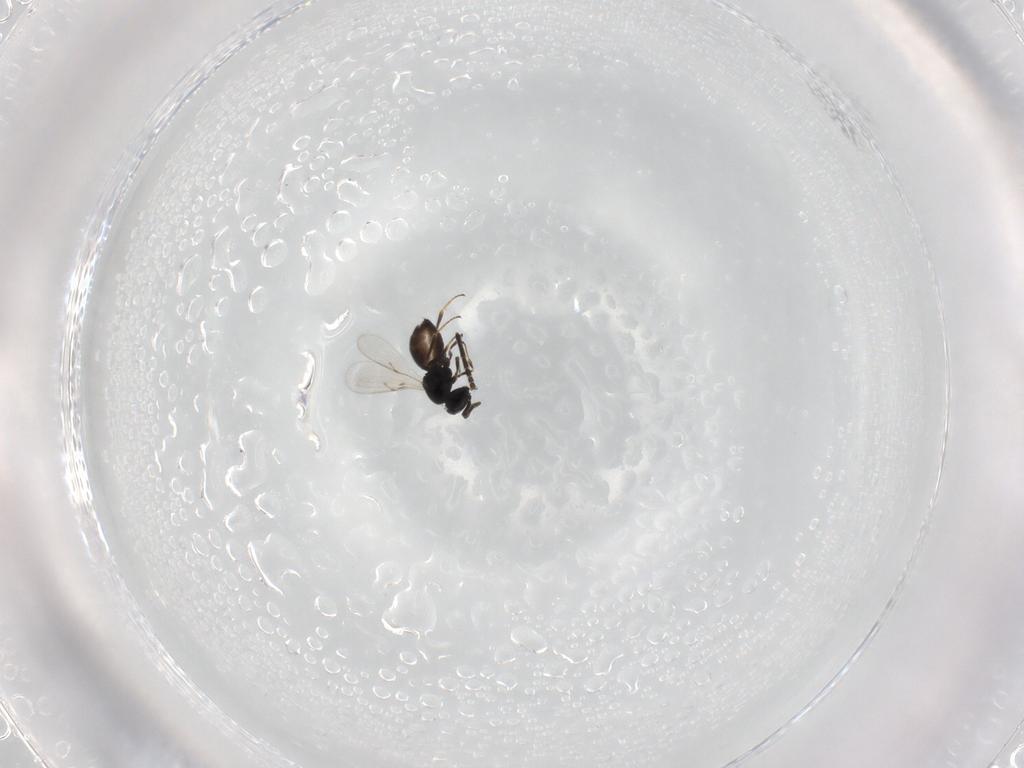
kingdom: Animalia
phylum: Arthropoda
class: Insecta
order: Hymenoptera
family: Scelionidae
